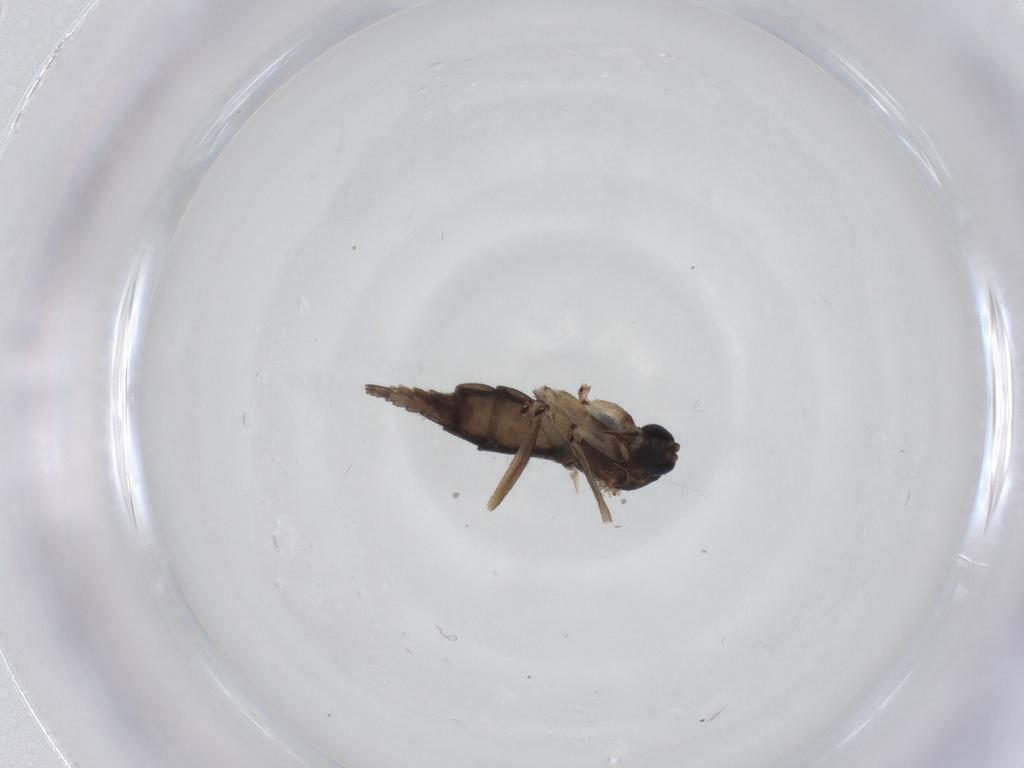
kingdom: Animalia
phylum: Arthropoda
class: Insecta
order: Diptera
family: Sciaridae
